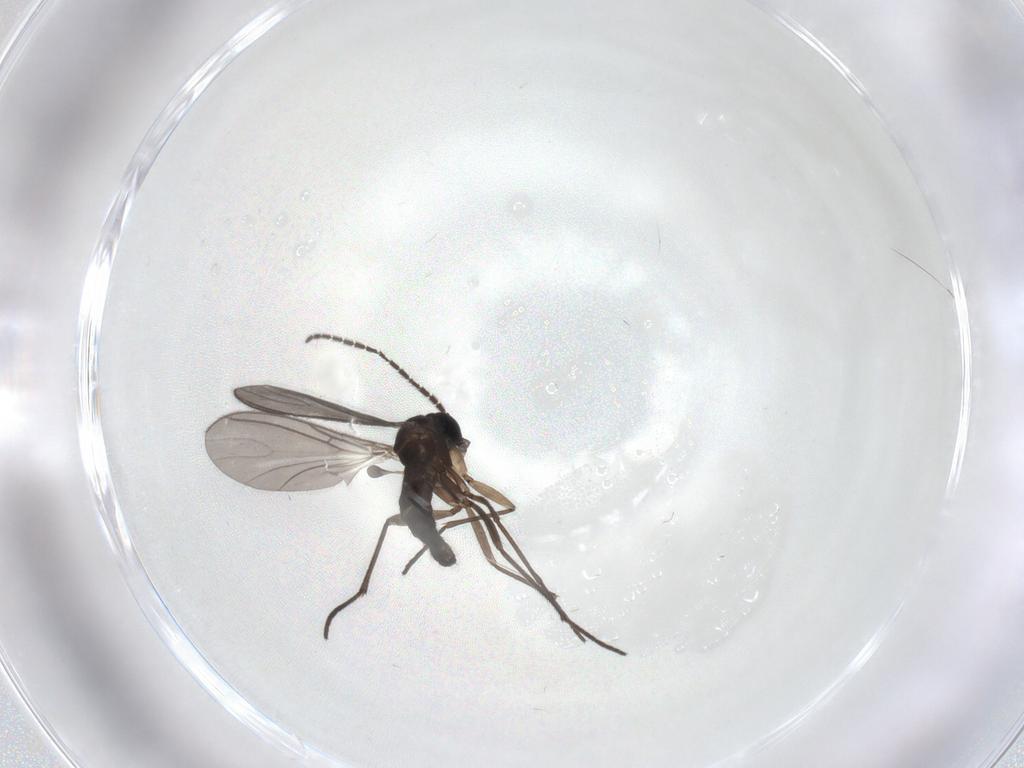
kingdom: Animalia
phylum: Arthropoda
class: Insecta
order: Diptera
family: Sciaridae
